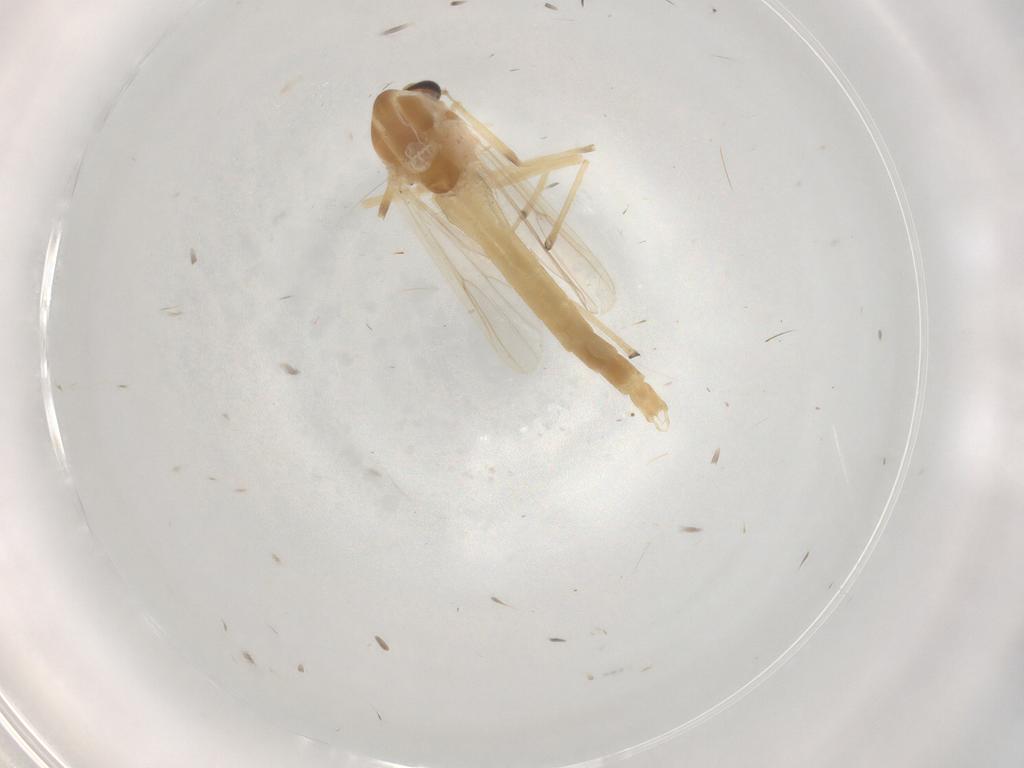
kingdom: Animalia
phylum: Arthropoda
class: Insecta
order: Diptera
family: Chironomidae
